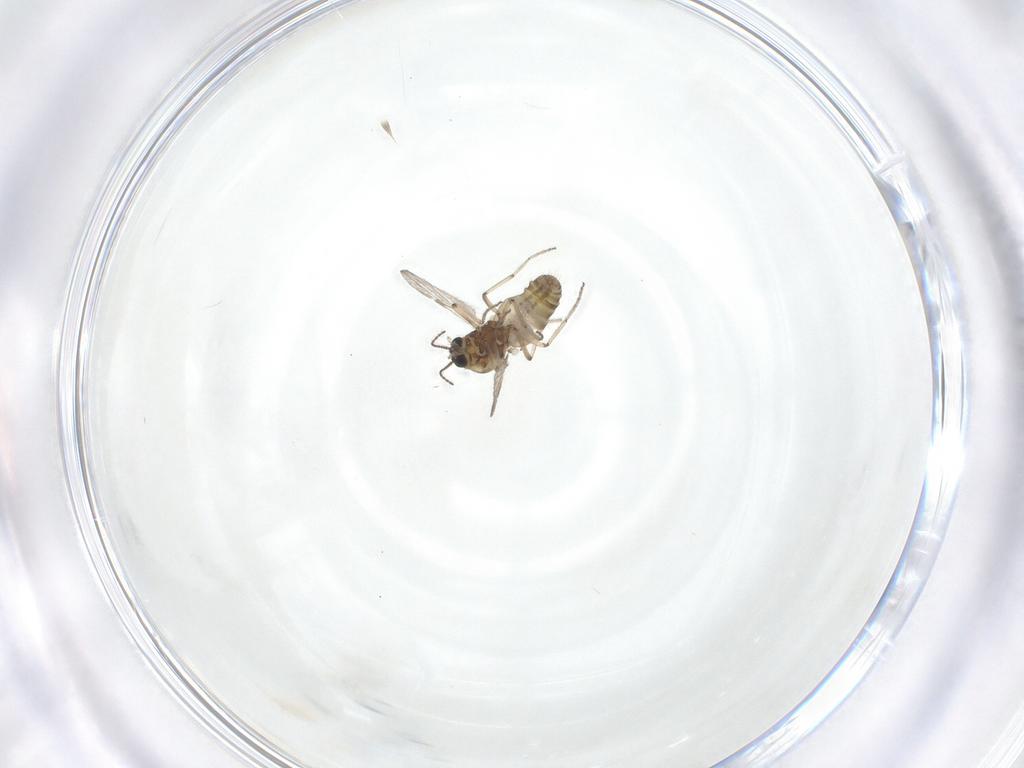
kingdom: Animalia
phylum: Arthropoda
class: Insecta
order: Diptera
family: Ceratopogonidae
